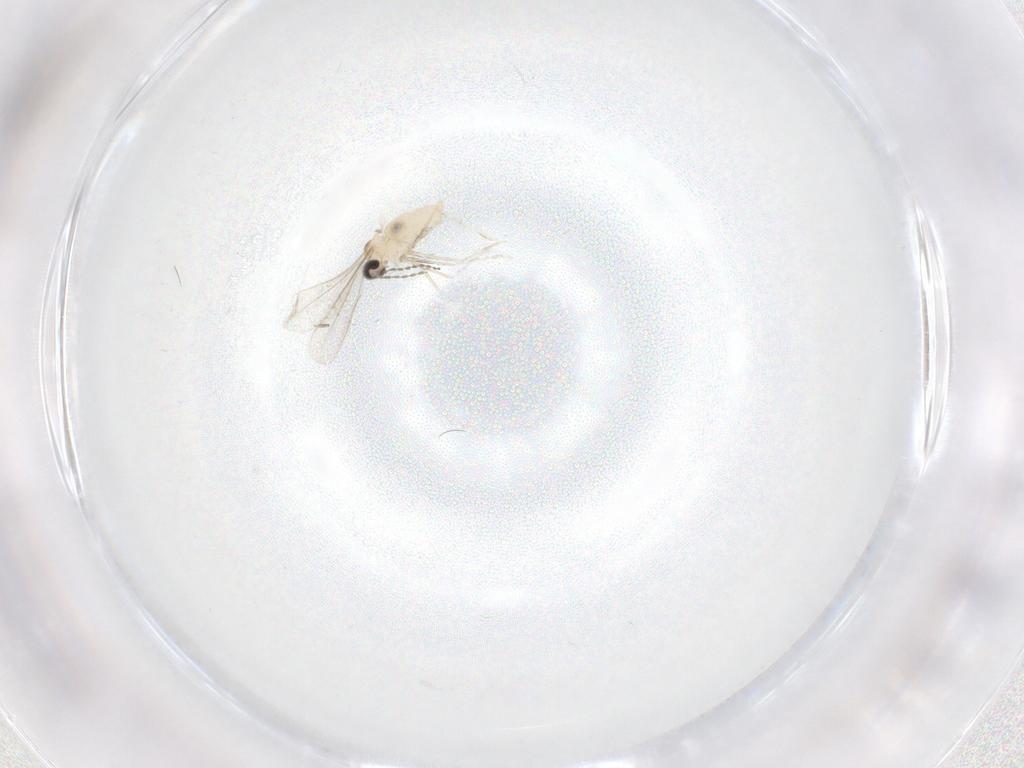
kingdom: Animalia
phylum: Arthropoda
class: Insecta
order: Diptera
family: Cecidomyiidae
